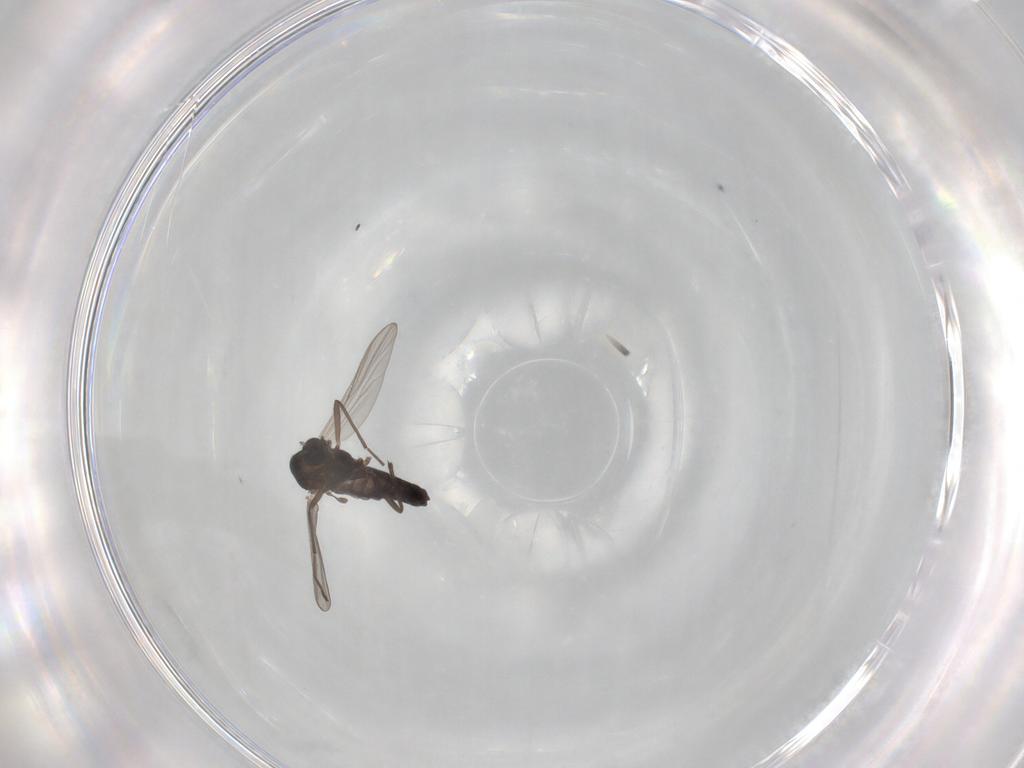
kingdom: Animalia
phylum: Arthropoda
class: Insecta
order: Diptera
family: Chironomidae
